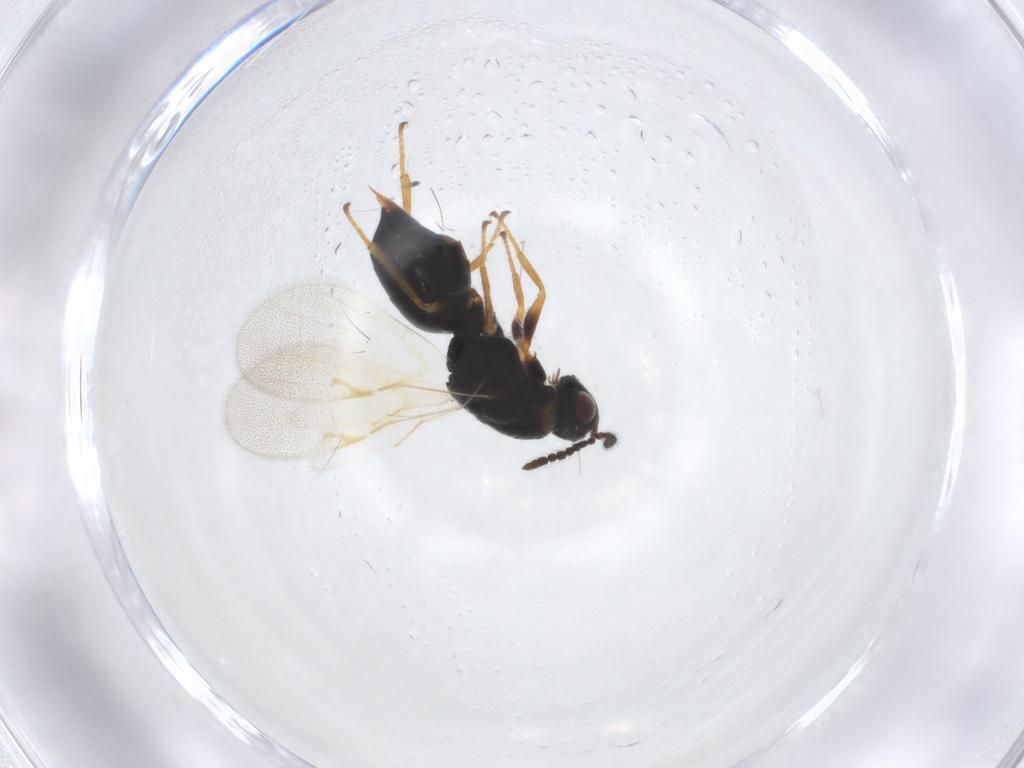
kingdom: Animalia
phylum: Arthropoda
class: Insecta
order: Hymenoptera
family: Eurytomidae
